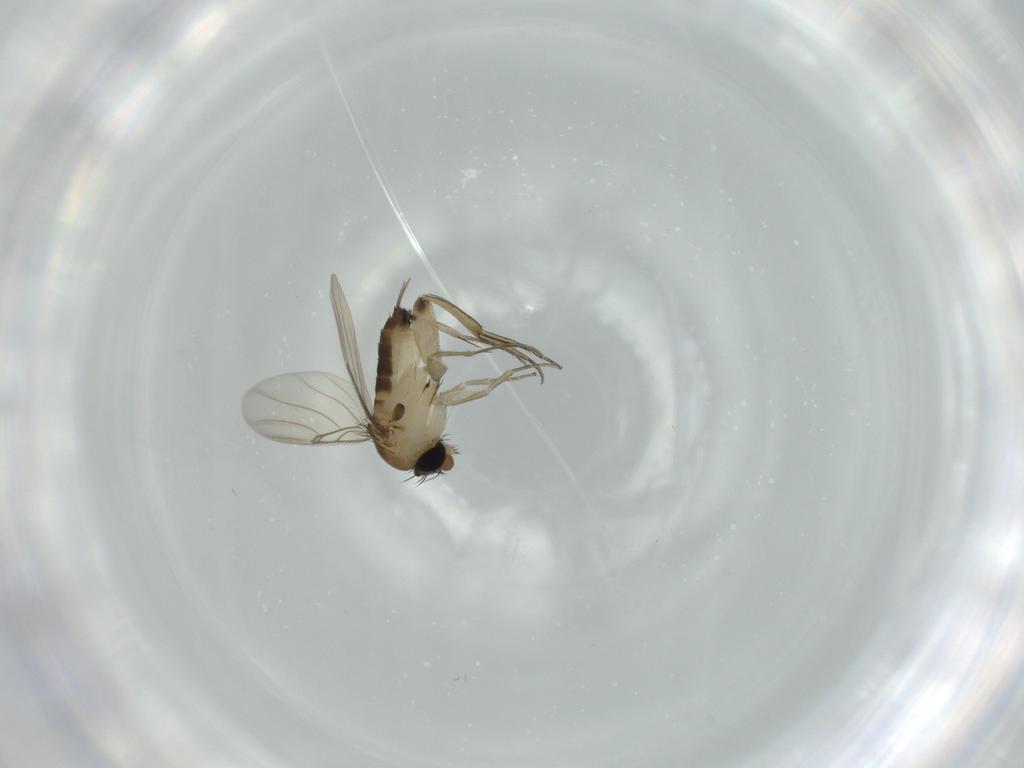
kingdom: Animalia
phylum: Arthropoda
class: Insecta
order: Diptera
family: Phoridae
